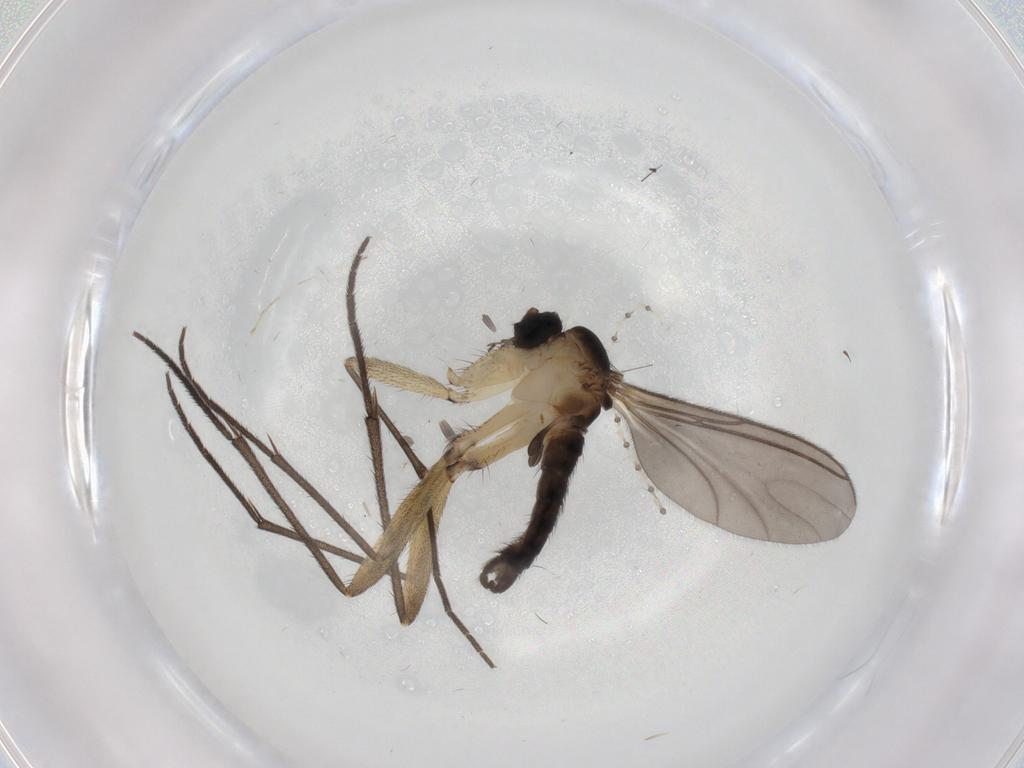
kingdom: Animalia
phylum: Arthropoda
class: Insecta
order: Diptera
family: Sciaridae
